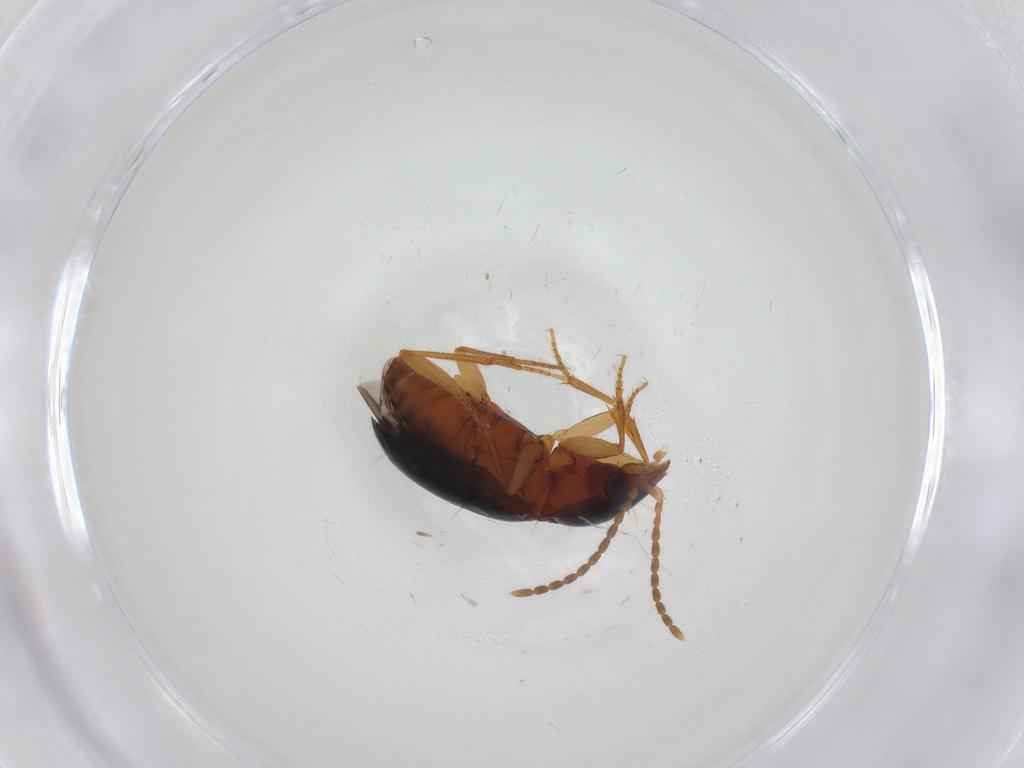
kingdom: Animalia
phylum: Arthropoda
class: Insecta
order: Coleoptera
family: Carabidae
